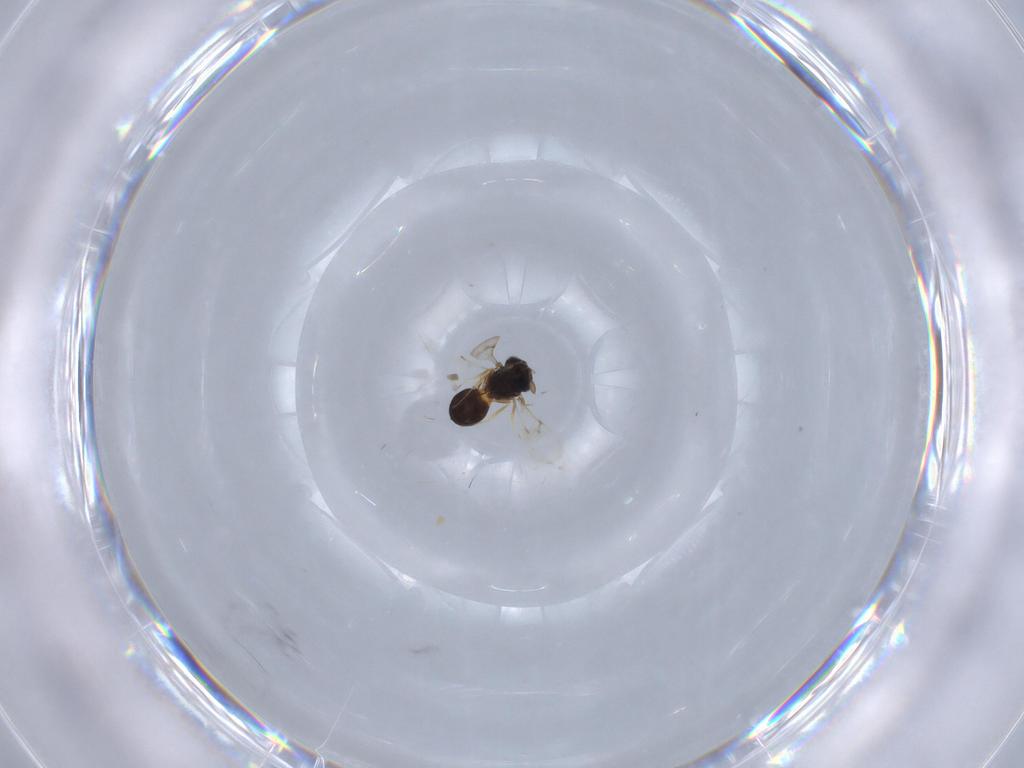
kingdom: Animalia
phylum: Arthropoda
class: Insecta
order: Hymenoptera
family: Scelionidae
